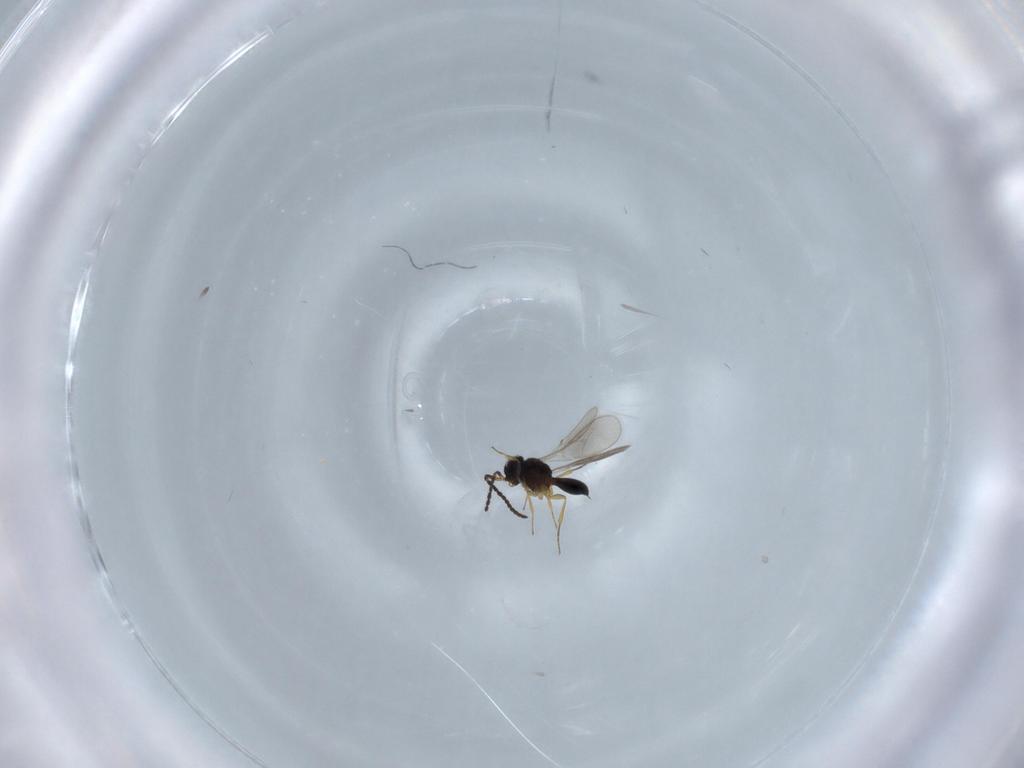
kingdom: Animalia
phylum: Arthropoda
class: Insecta
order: Hymenoptera
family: Scelionidae
